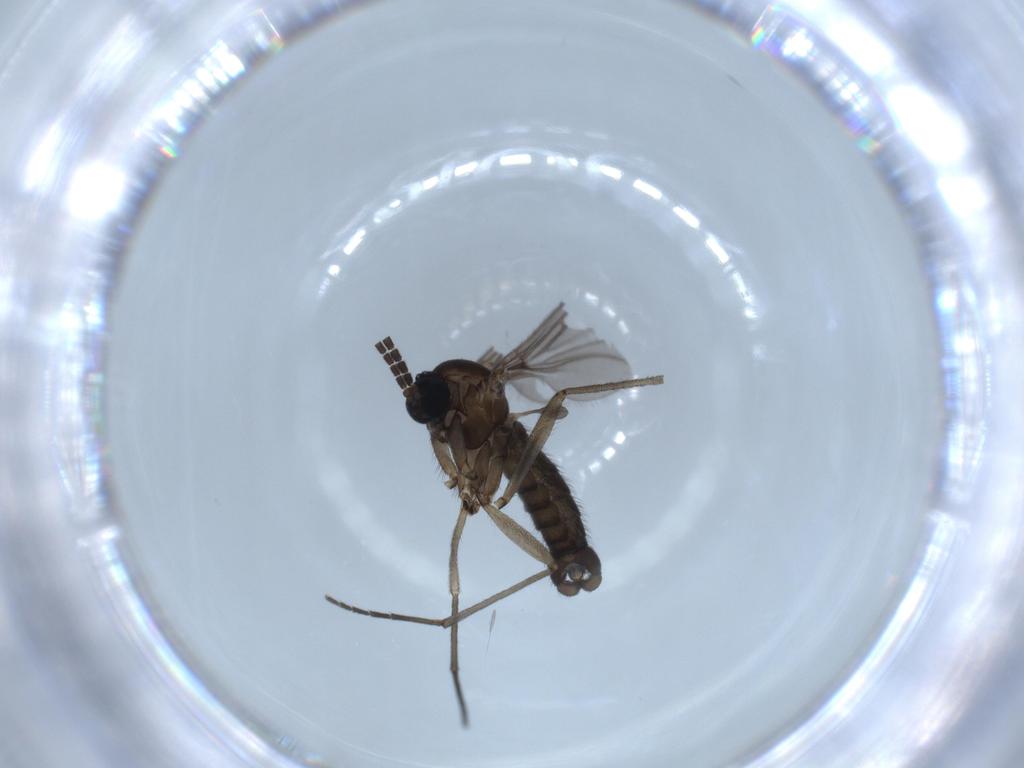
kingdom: Animalia
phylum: Arthropoda
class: Insecta
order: Diptera
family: Sciaridae
